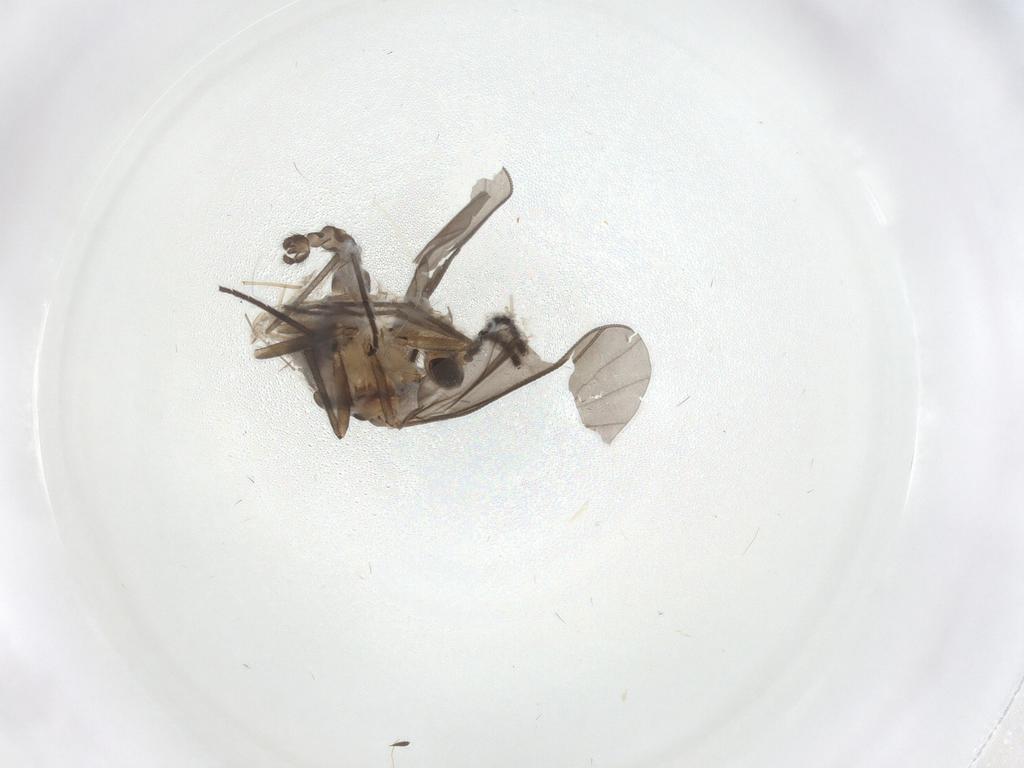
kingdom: Animalia
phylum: Arthropoda
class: Insecta
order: Diptera
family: Sciaridae
